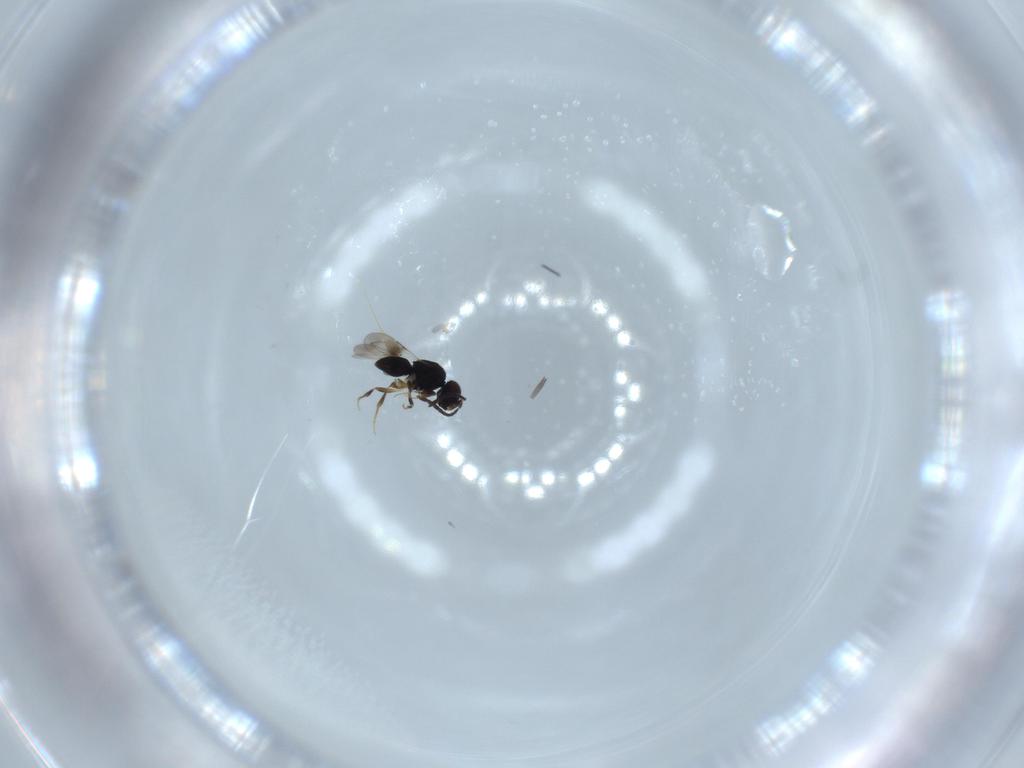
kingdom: Animalia
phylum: Arthropoda
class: Insecta
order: Hymenoptera
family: Ceraphronidae
